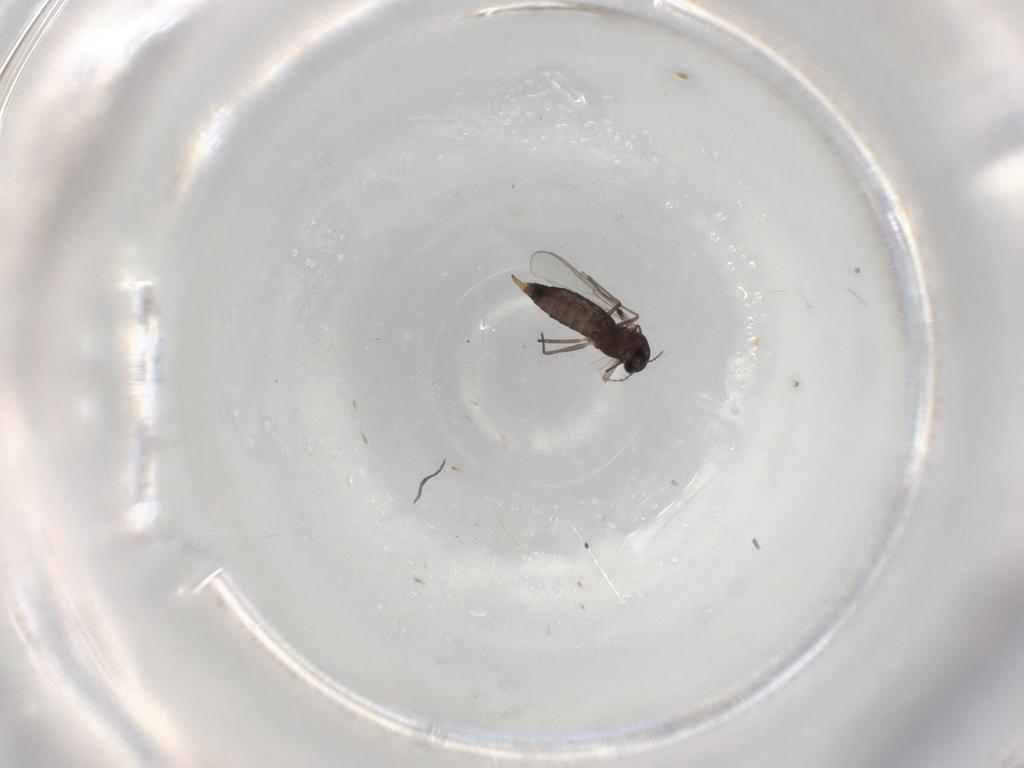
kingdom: Animalia
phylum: Arthropoda
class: Insecta
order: Diptera
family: Chironomidae
